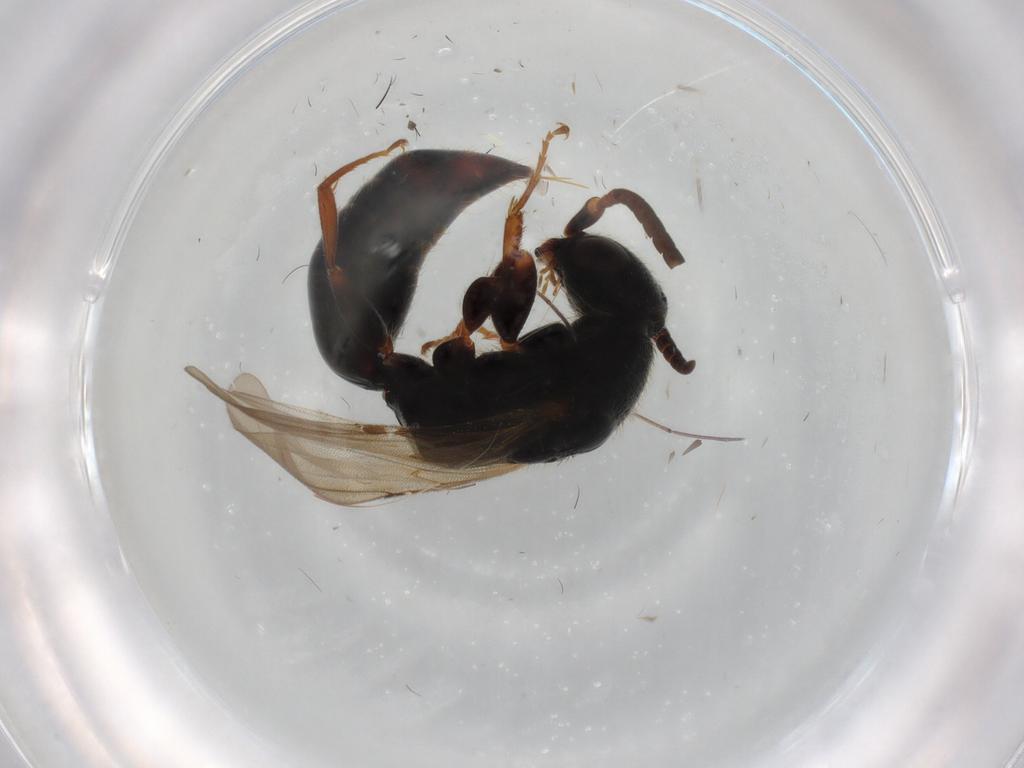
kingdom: Animalia
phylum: Arthropoda
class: Insecta
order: Hymenoptera
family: Bethylidae
